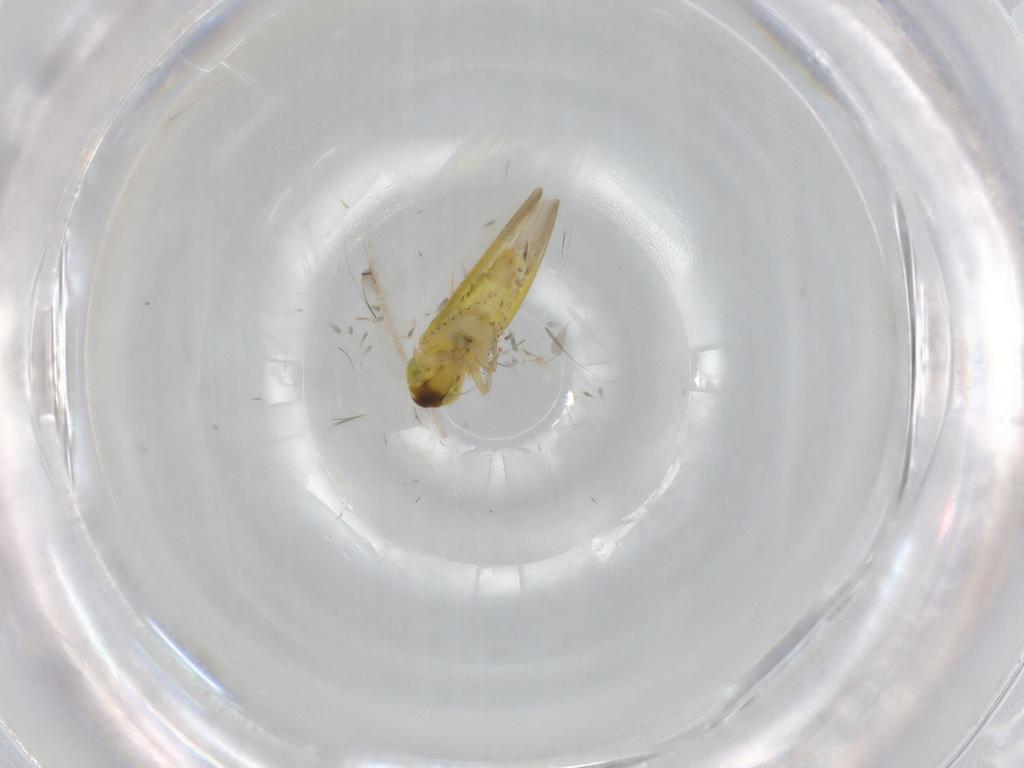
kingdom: Animalia
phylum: Arthropoda
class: Insecta
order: Hemiptera
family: Cicadellidae
